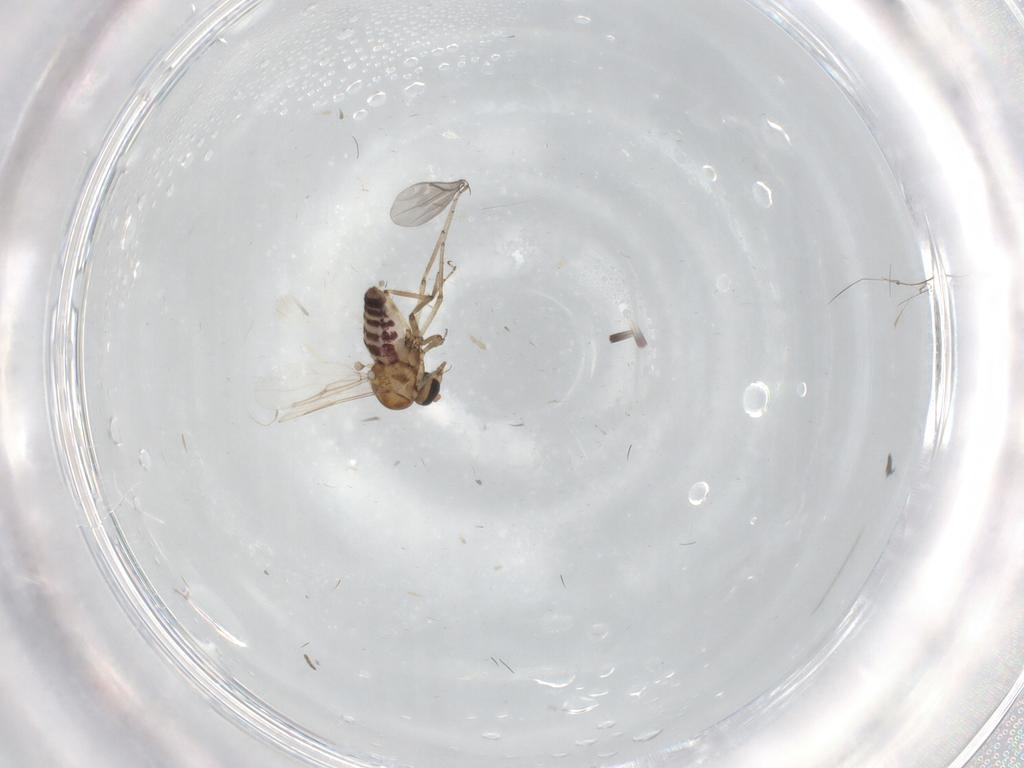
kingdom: Animalia
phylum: Arthropoda
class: Insecta
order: Diptera
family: Ceratopogonidae
